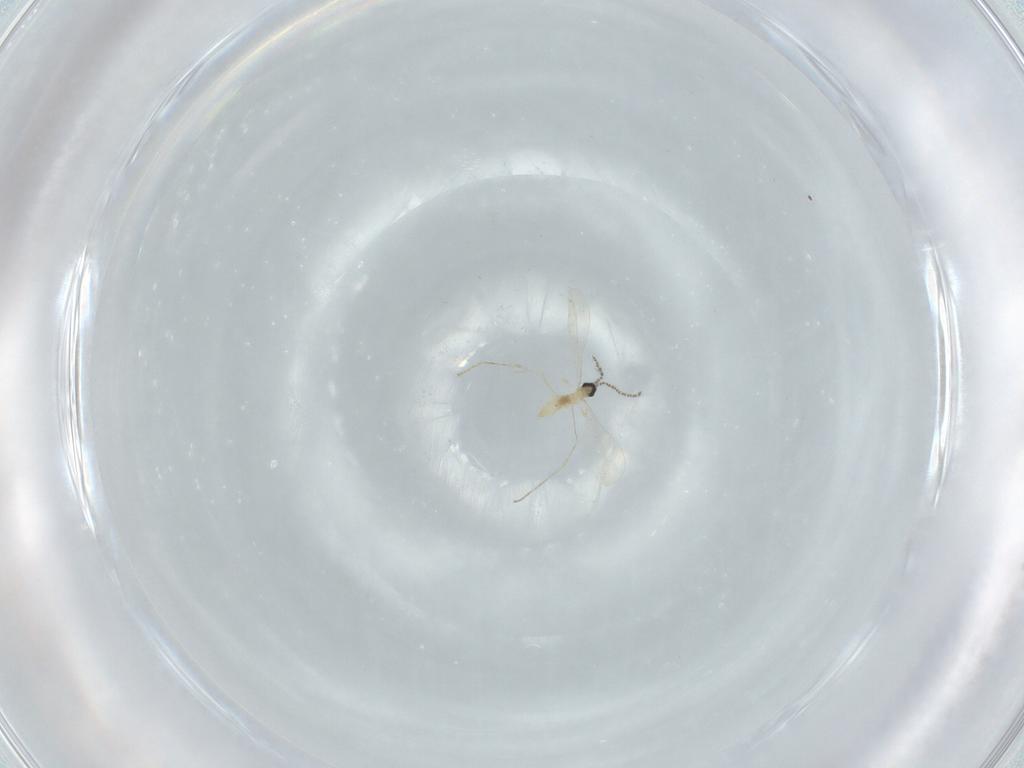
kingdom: Animalia
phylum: Arthropoda
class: Insecta
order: Diptera
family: Cecidomyiidae
